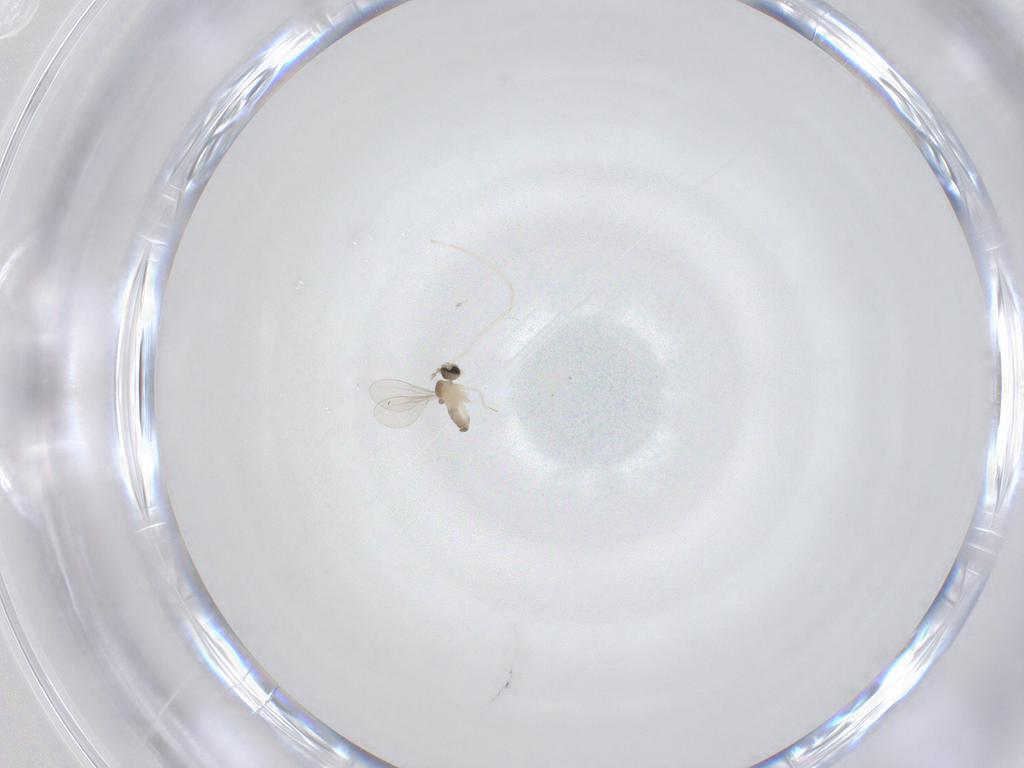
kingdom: Animalia
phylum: Arthropoda
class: Insecta
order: Diptera
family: Cecidomyiidae
